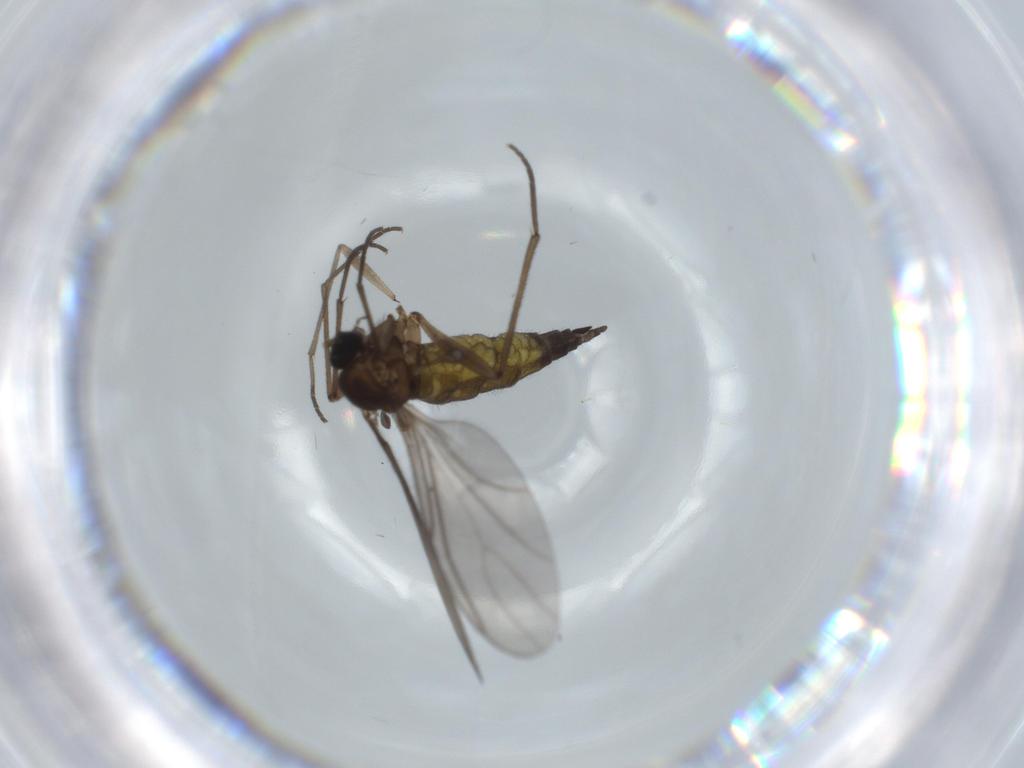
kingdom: Animalia
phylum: Arthropoda
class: Insecta
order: Diptera
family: Sciaridae
